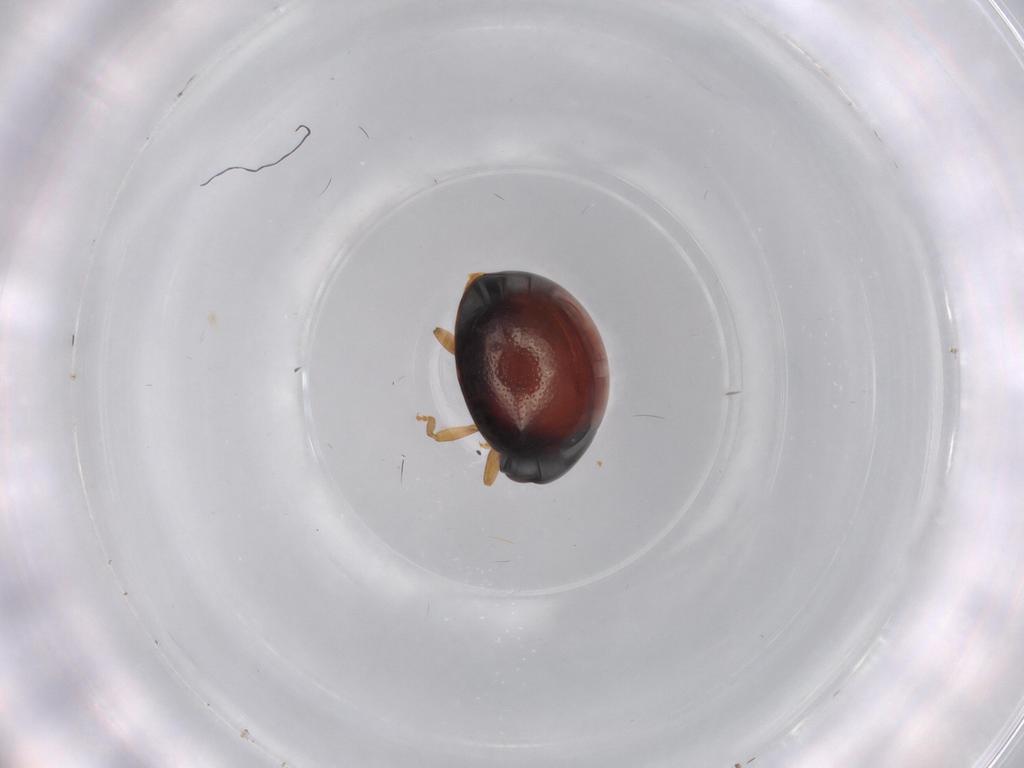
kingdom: Animalia
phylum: Arthropoda
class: Insecta
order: Coleoptera
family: Coccinellidae
